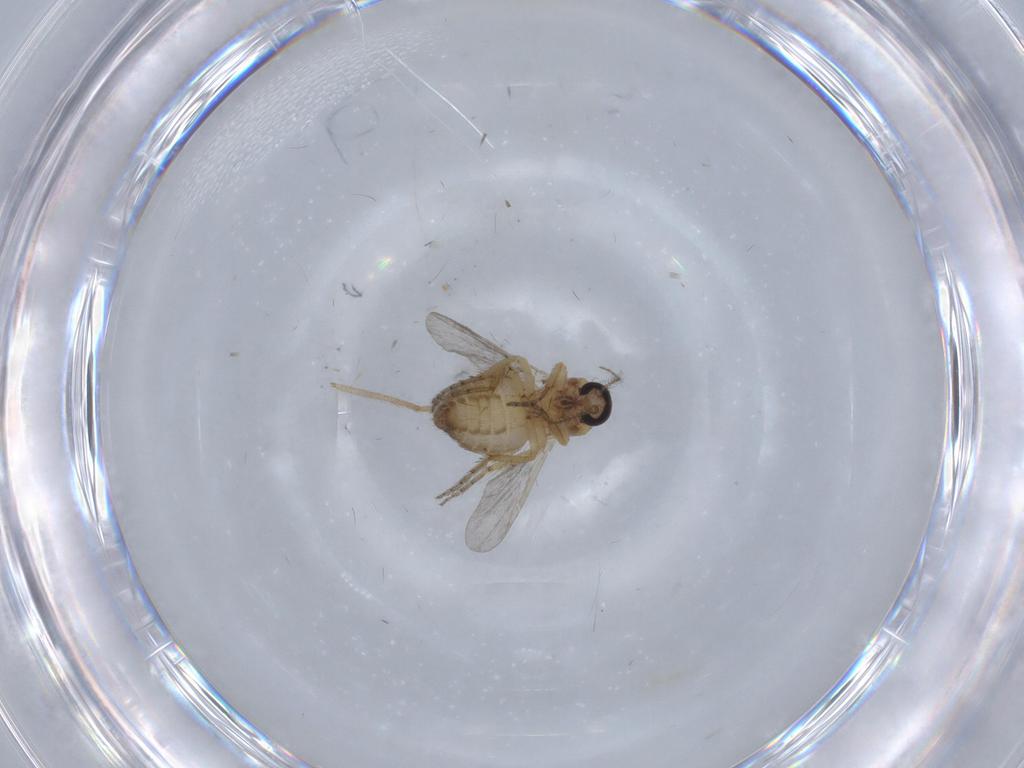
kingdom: Animalia
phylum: Arthropoda
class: Insecta
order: Diptera
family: Ceratopogonidae
